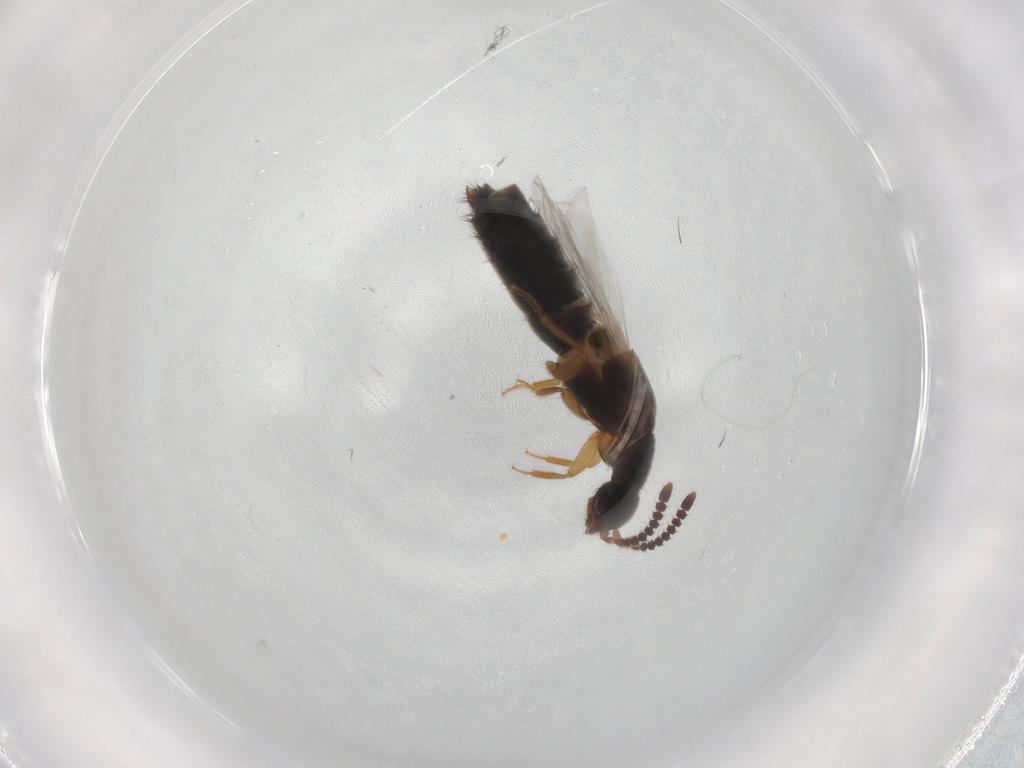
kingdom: Animalia
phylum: Arthropoda
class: Insecta
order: Coleoptera
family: Staphylinidae
